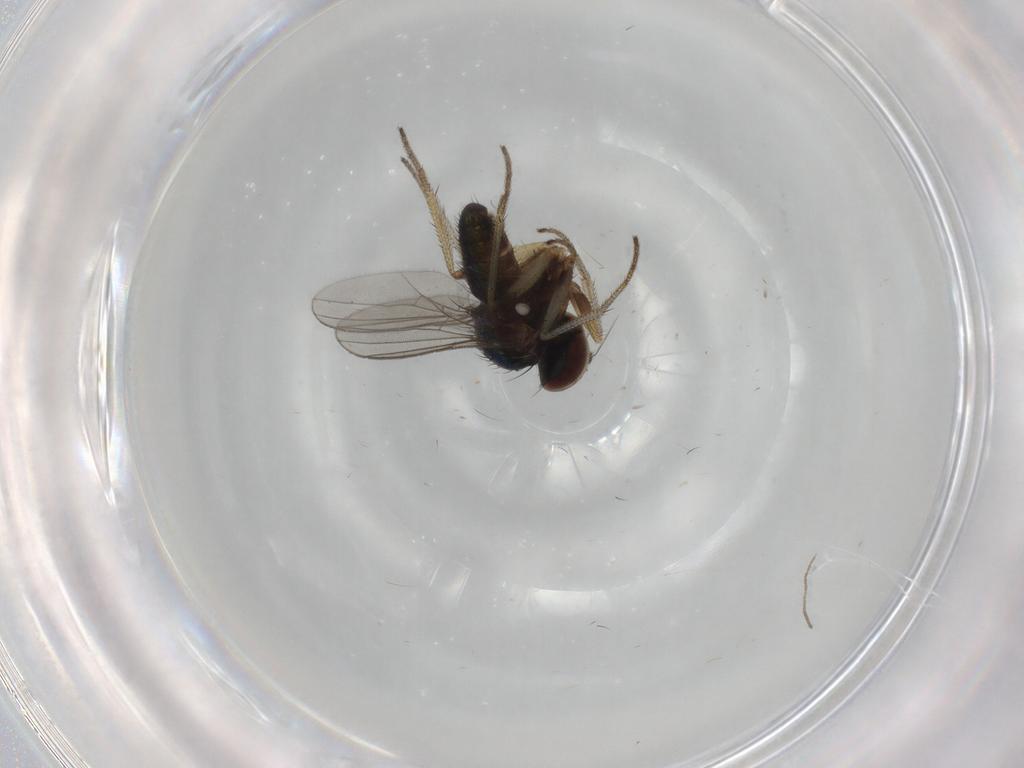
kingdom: Animalia
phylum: Arthropoda
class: Insecta
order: Diptera
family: Dolichopodidae
